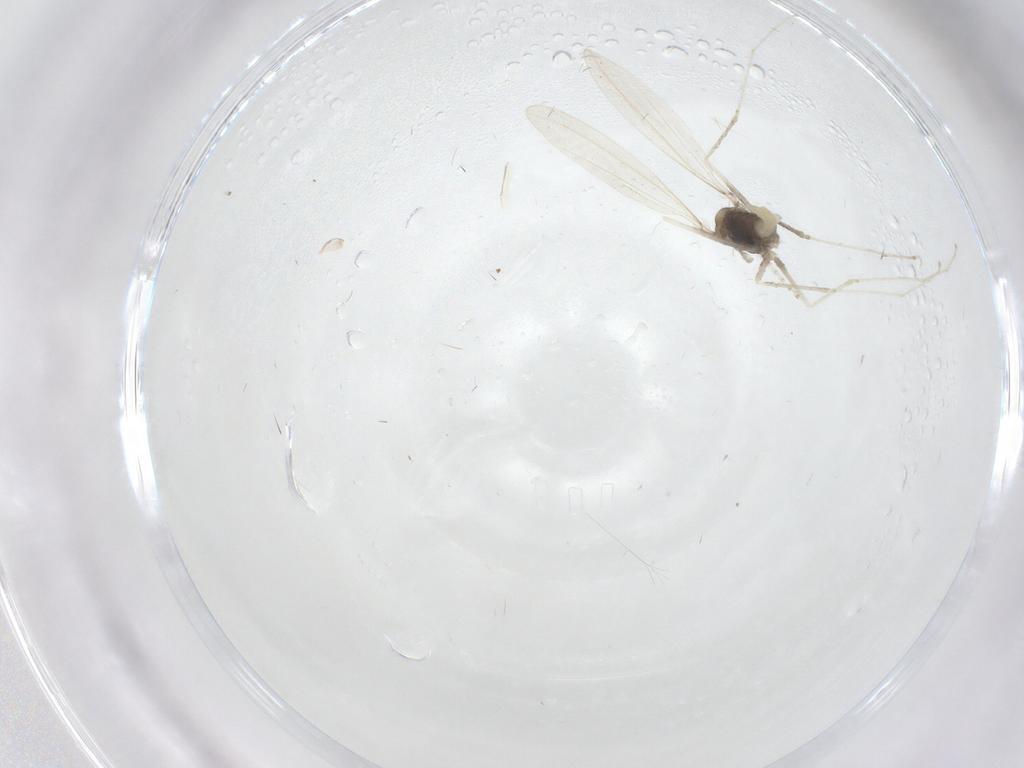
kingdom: Animalia
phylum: Arthropoda
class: Insecta
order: Diptera
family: Cecidomyiidae
